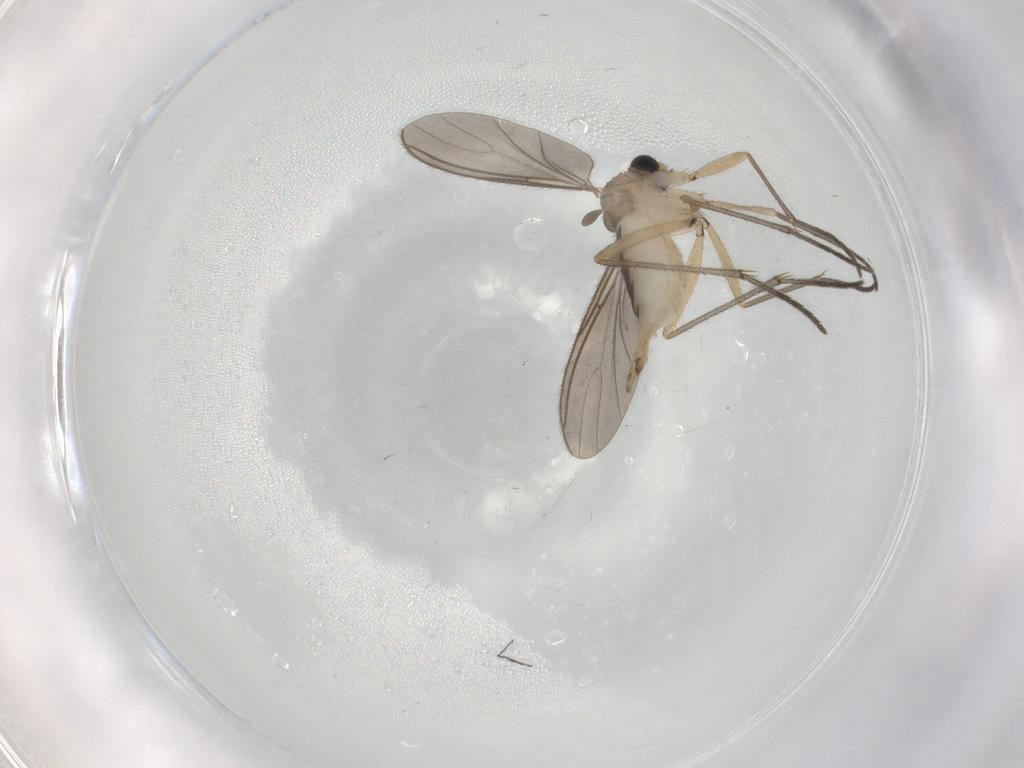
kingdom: Animalia
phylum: Arthropoda
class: Insecta
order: Diptera
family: Sciaridae
